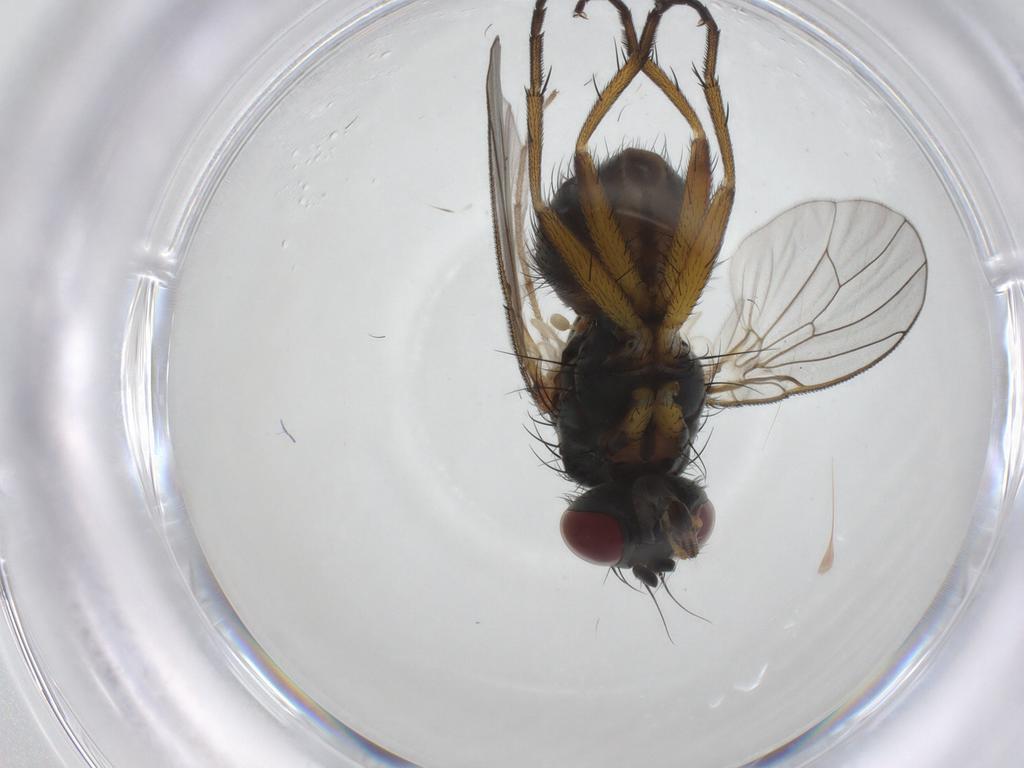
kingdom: Animalia
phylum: Arthropoda
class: Insecta
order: Diptera
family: Muscidae
